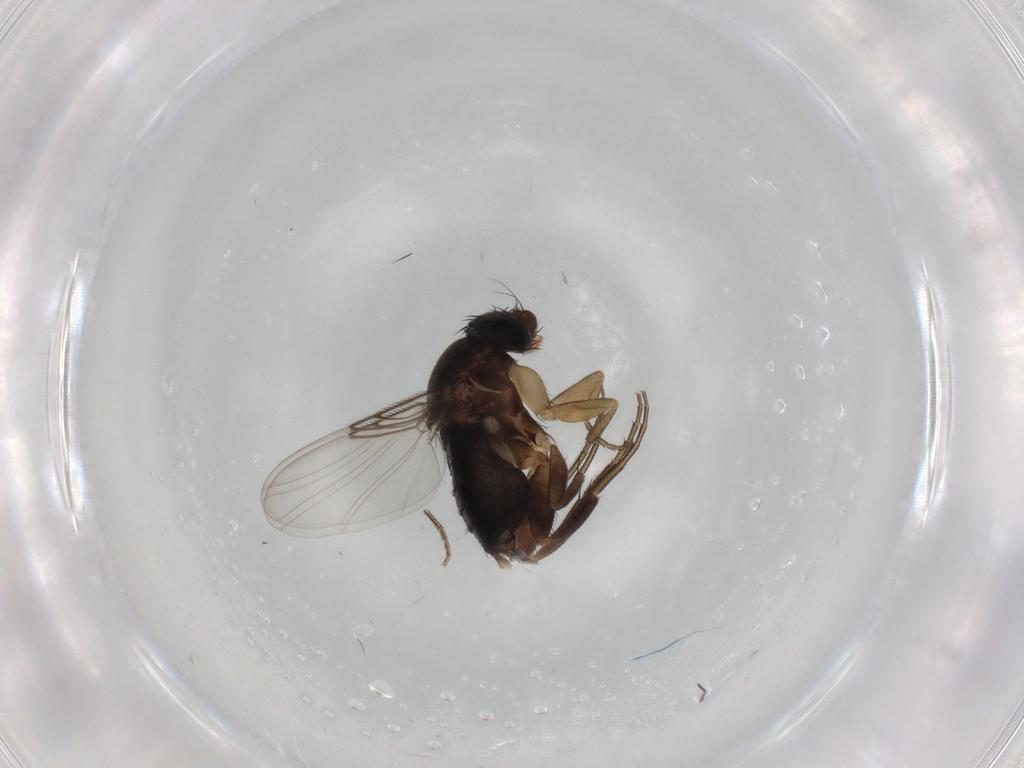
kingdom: Animalia
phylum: Arthropoda
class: Insecta
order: Diptera
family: Phoridae
